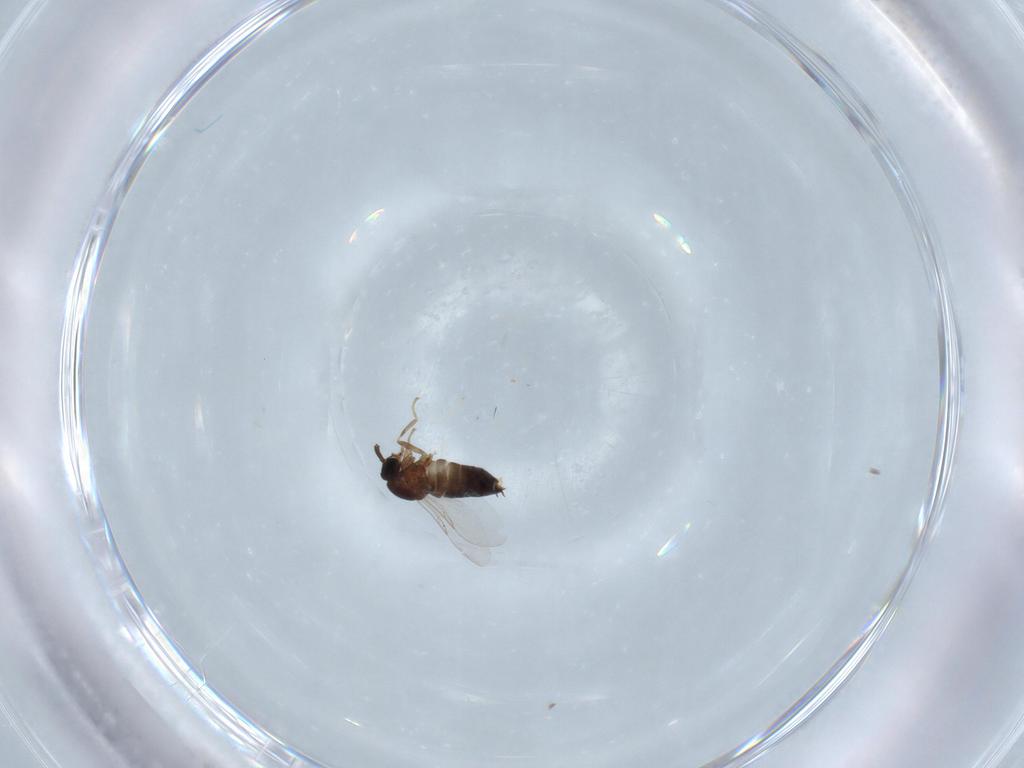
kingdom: Animalia
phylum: Arthropoda
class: Insecta
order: Diptera
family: Scatopsidae
